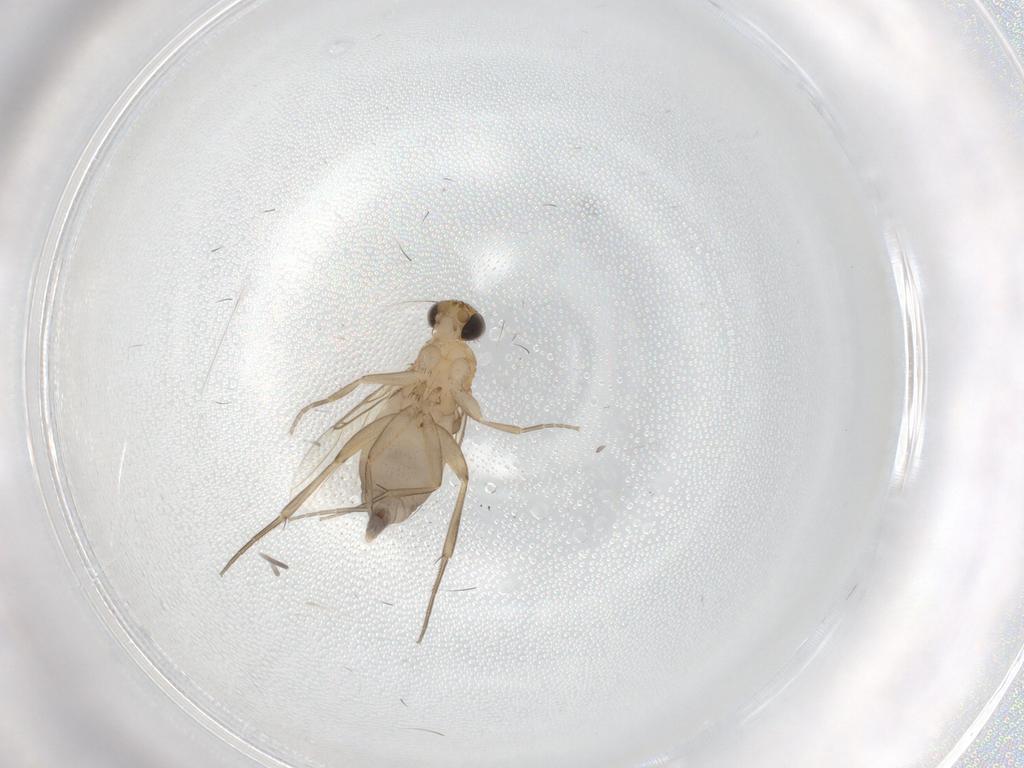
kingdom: Animalia
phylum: Arthropoda
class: Insecta
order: Diptera
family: Phoridae
